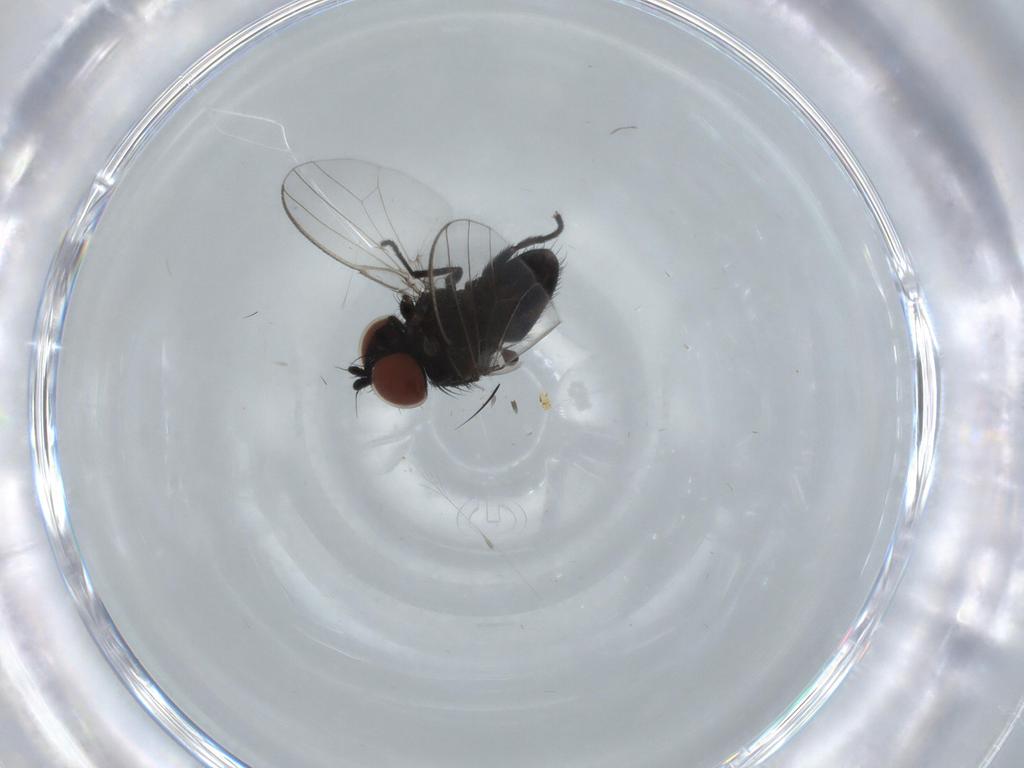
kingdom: Animalia
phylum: Arthropoda
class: Insecta
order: Diptera
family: Milichiidae
